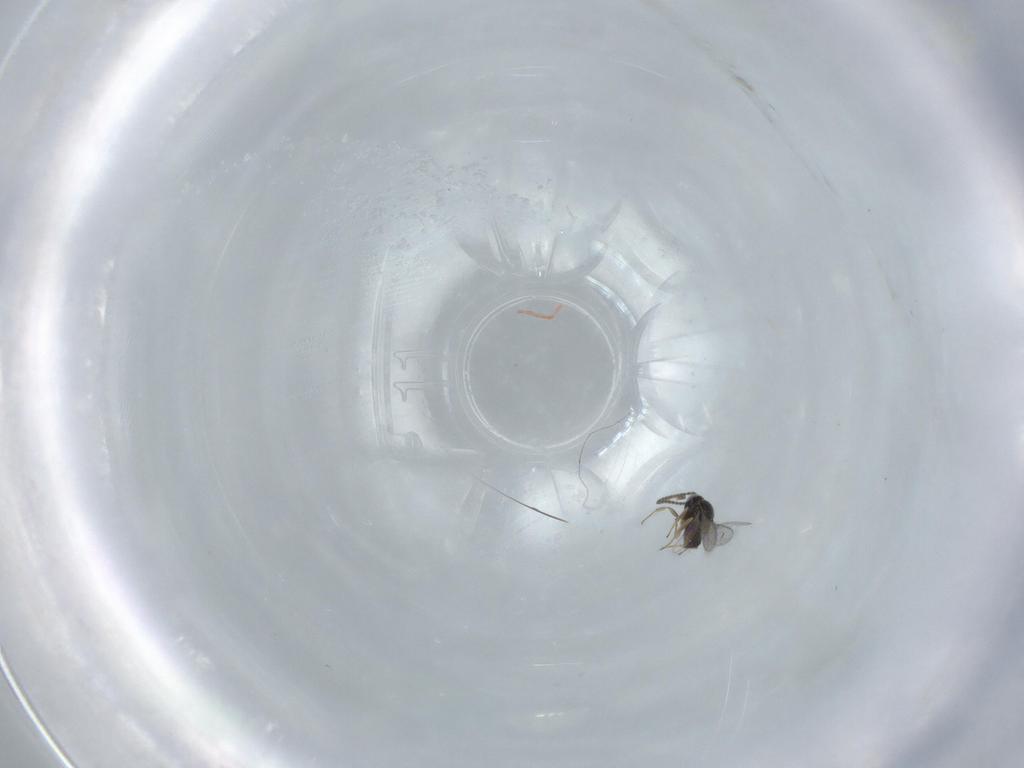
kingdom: Animalia
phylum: Arthropoda
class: Insecta
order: Hymenoptera
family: Scelionidae
